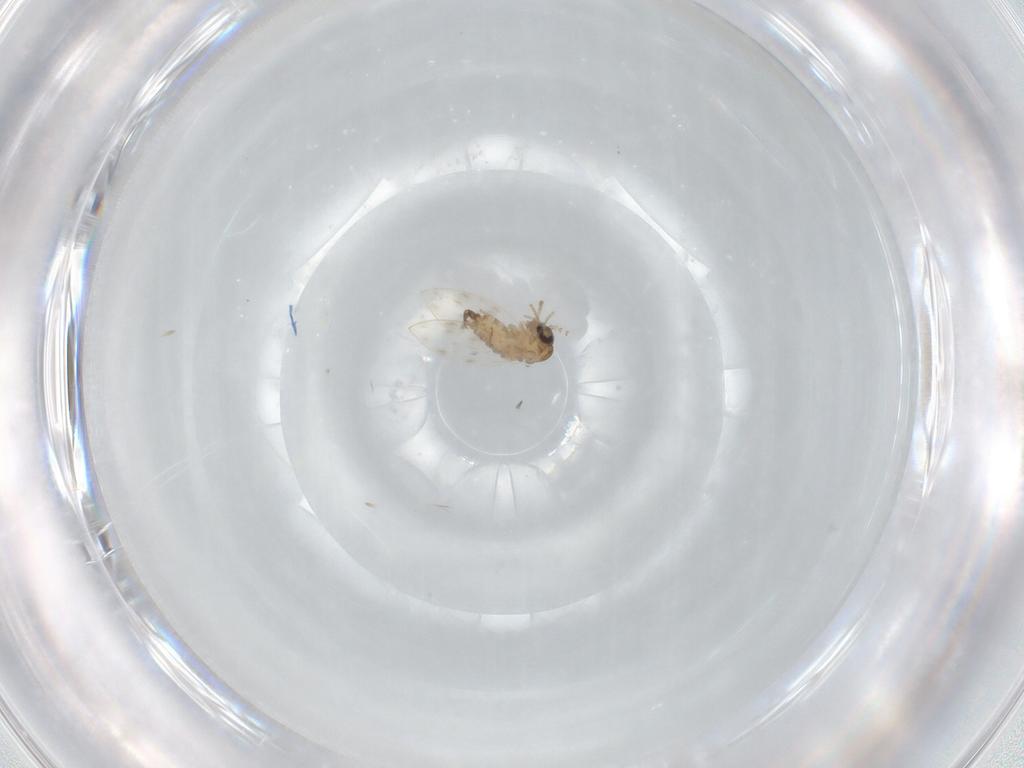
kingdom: Animalia
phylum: Arthropoda
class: Insecta
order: Diptera
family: Psychodidae
